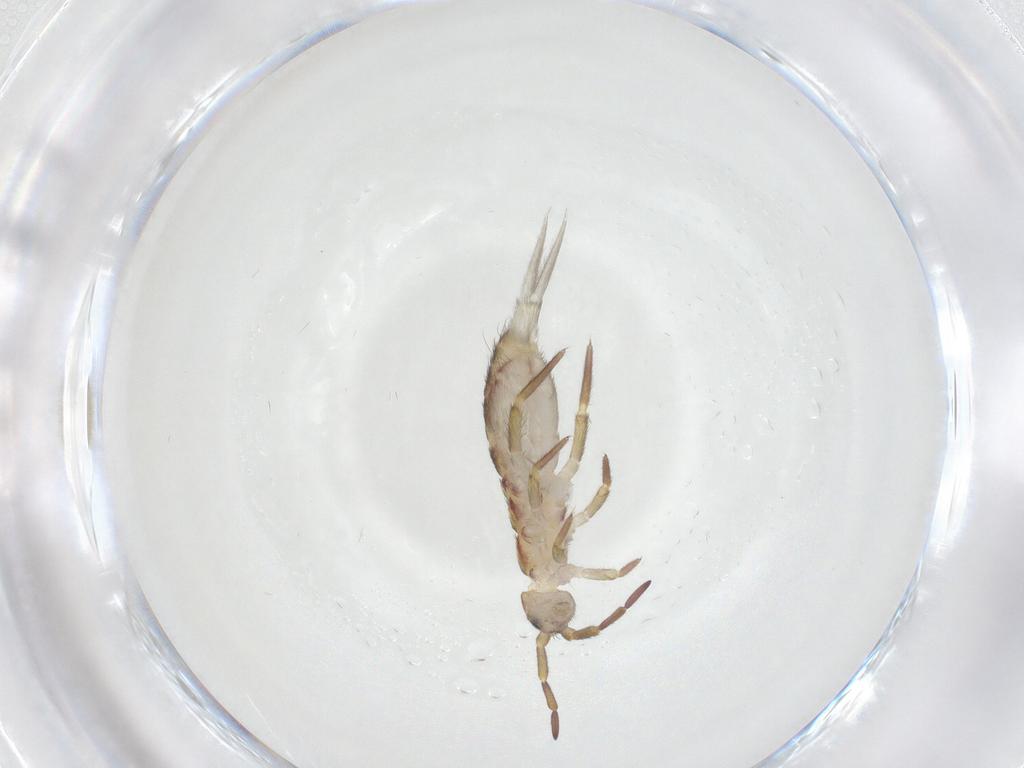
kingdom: Animalia
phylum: Arthropoda
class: Collembola
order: Entomobryomorpha
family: Isotomidae
